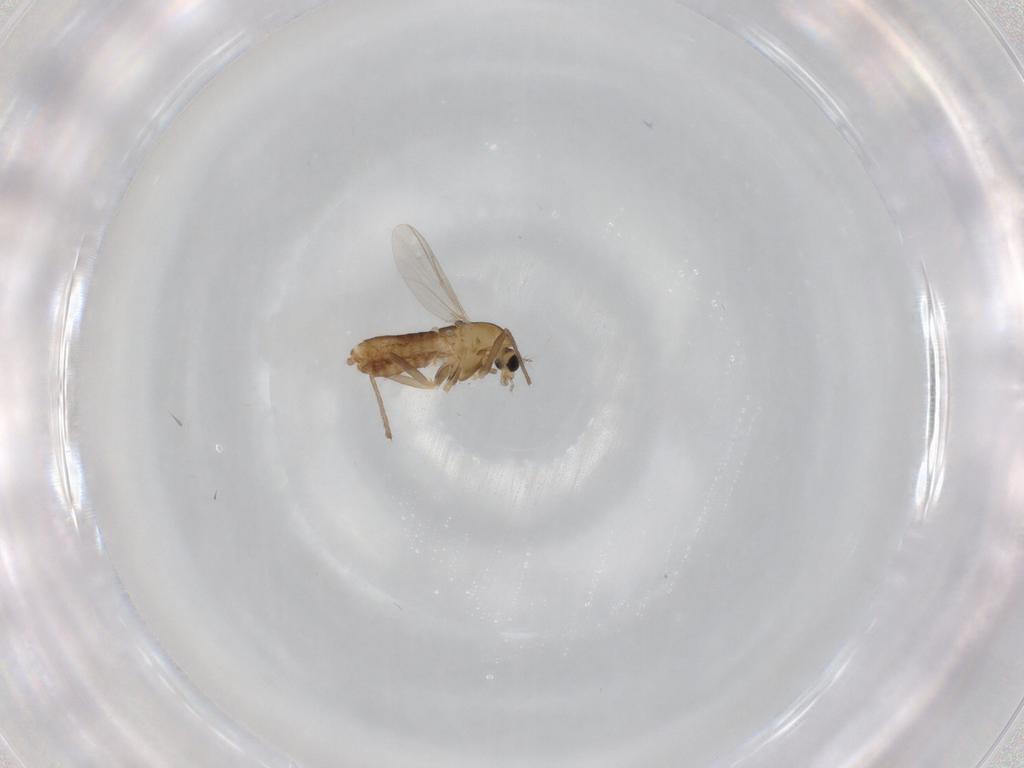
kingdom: Animalia
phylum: Arthropoda
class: Insecta
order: Diptera
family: Chironomidae
